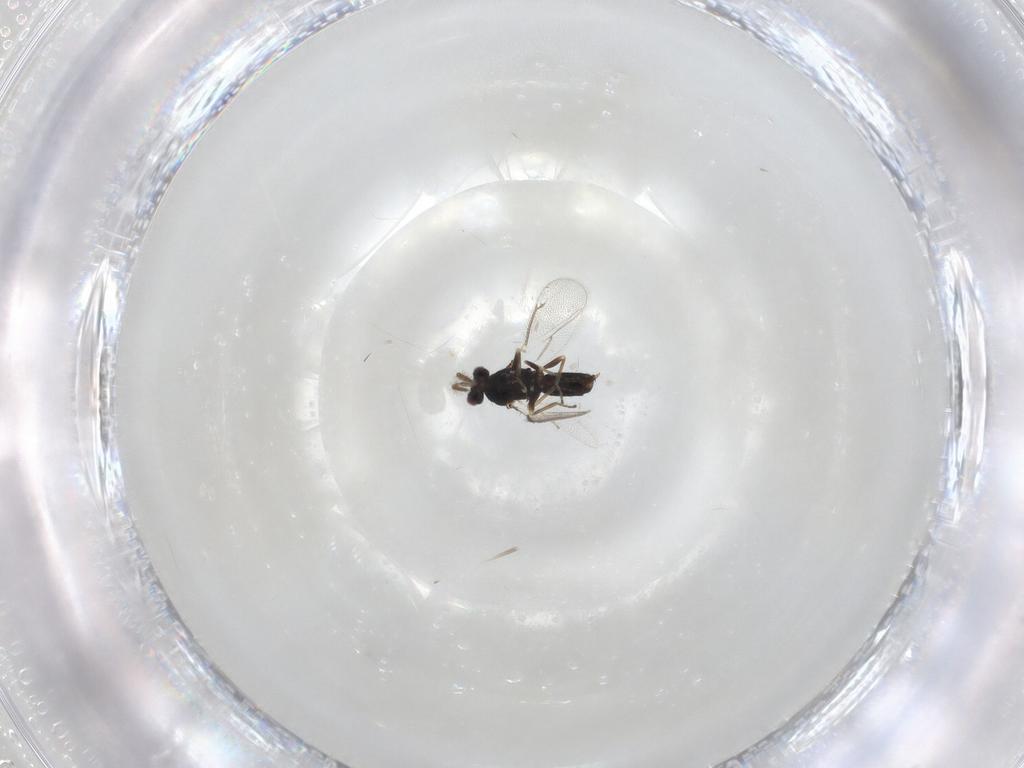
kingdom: Animalia
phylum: Arthropoda
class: Insecta
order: Hymenoptera
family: Eulophidae
